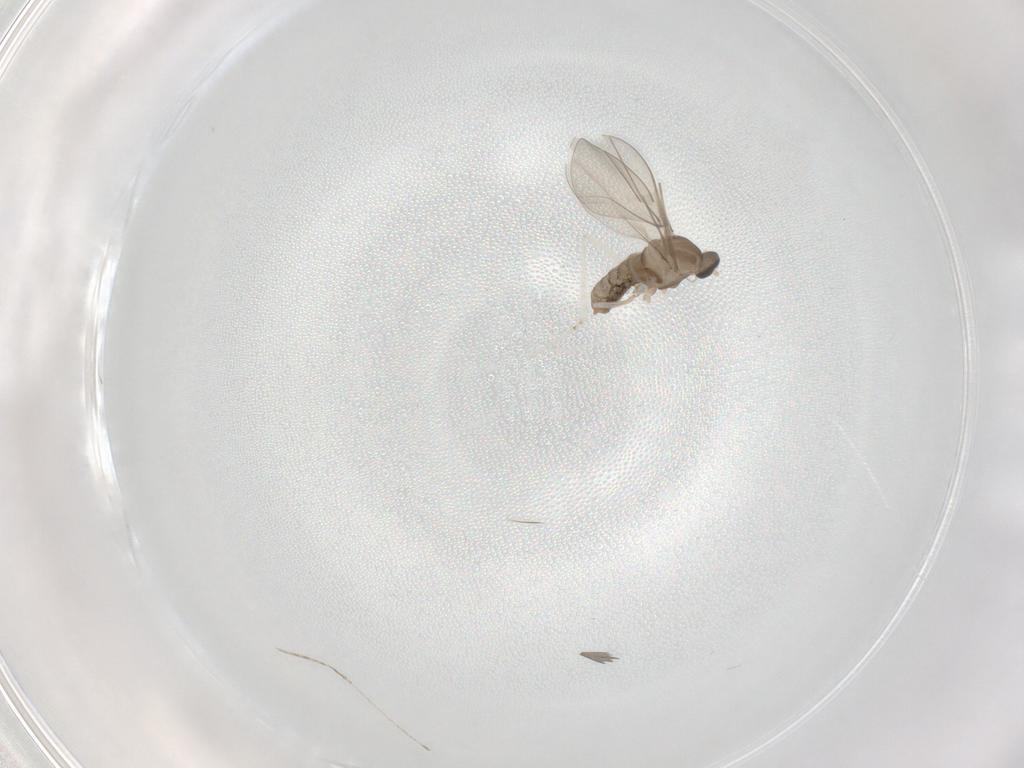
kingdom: Animalia
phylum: Arthropoda
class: Insecta
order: Diptera
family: Cecidomyiidae
